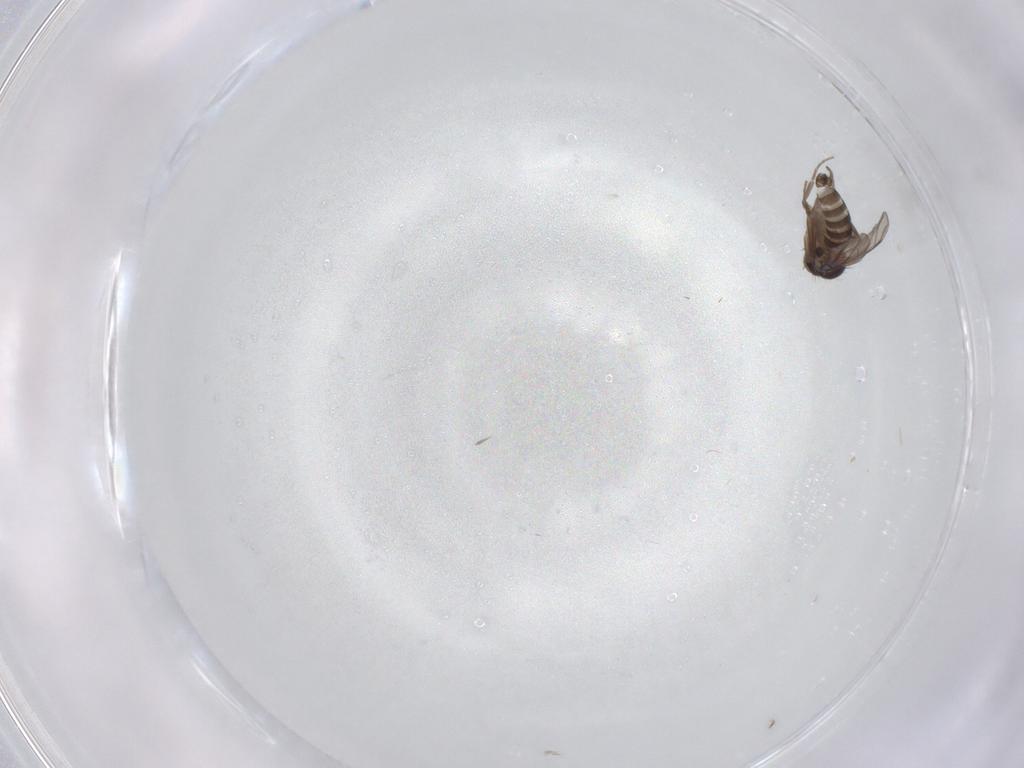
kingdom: Animalia
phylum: Arthropoda
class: Insecta
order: Diptera
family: Phoridae
